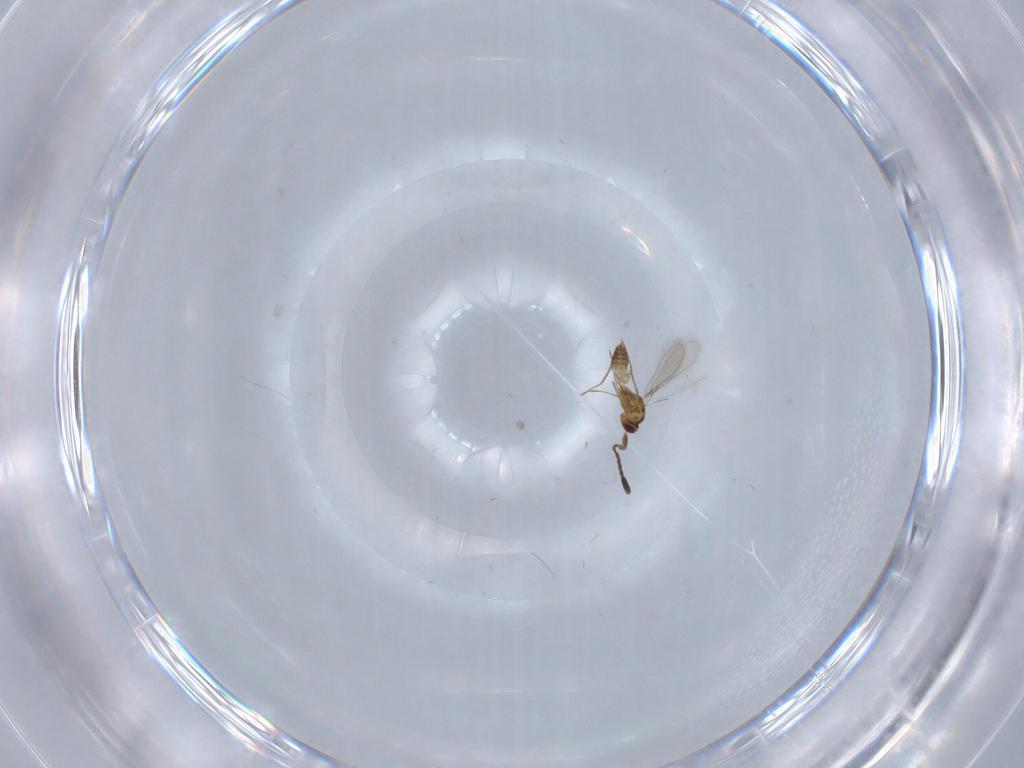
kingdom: Animalia
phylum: Arthropoda
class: Insecta
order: Hymenoptera
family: Mymaridae
